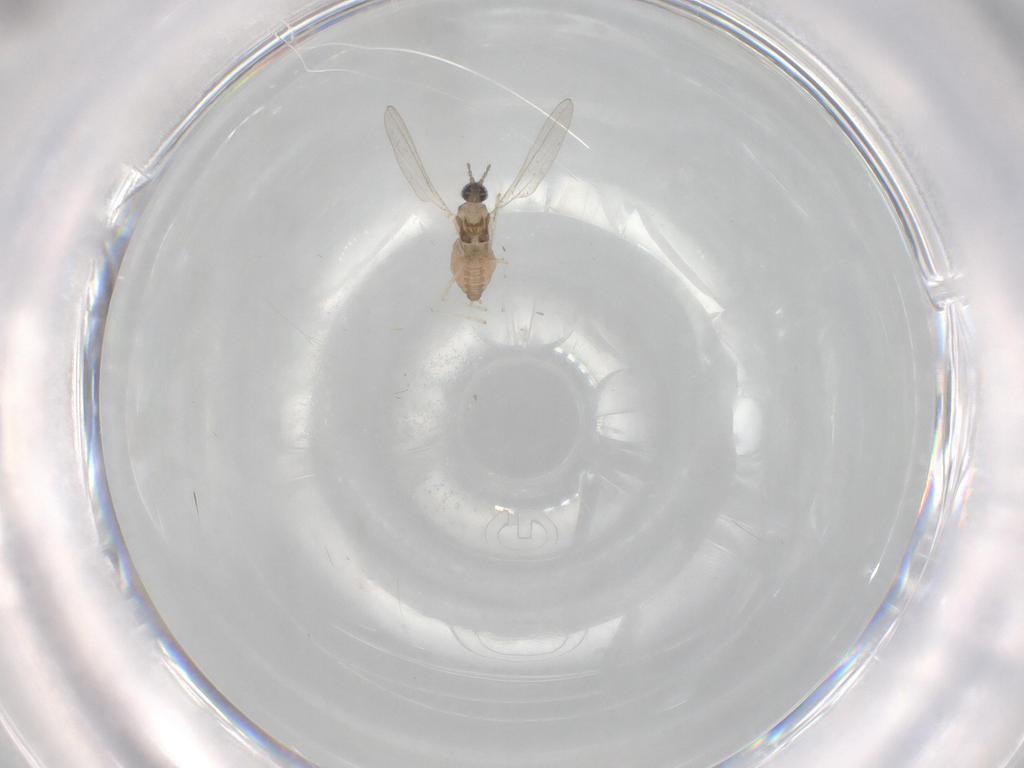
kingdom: Animalia
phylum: Arthropoda
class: Insecta
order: Diptera
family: Cecidomyiidae
